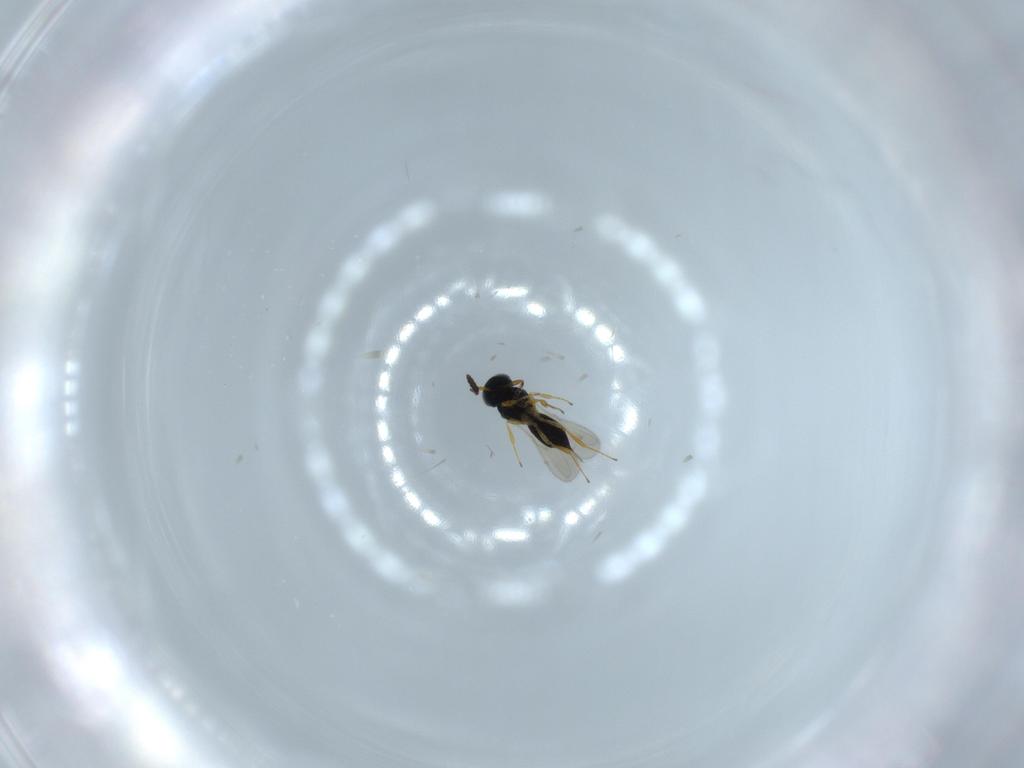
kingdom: Animalia
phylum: Arthropoda
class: Insecta
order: Hymenoptera
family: Scelionidae
